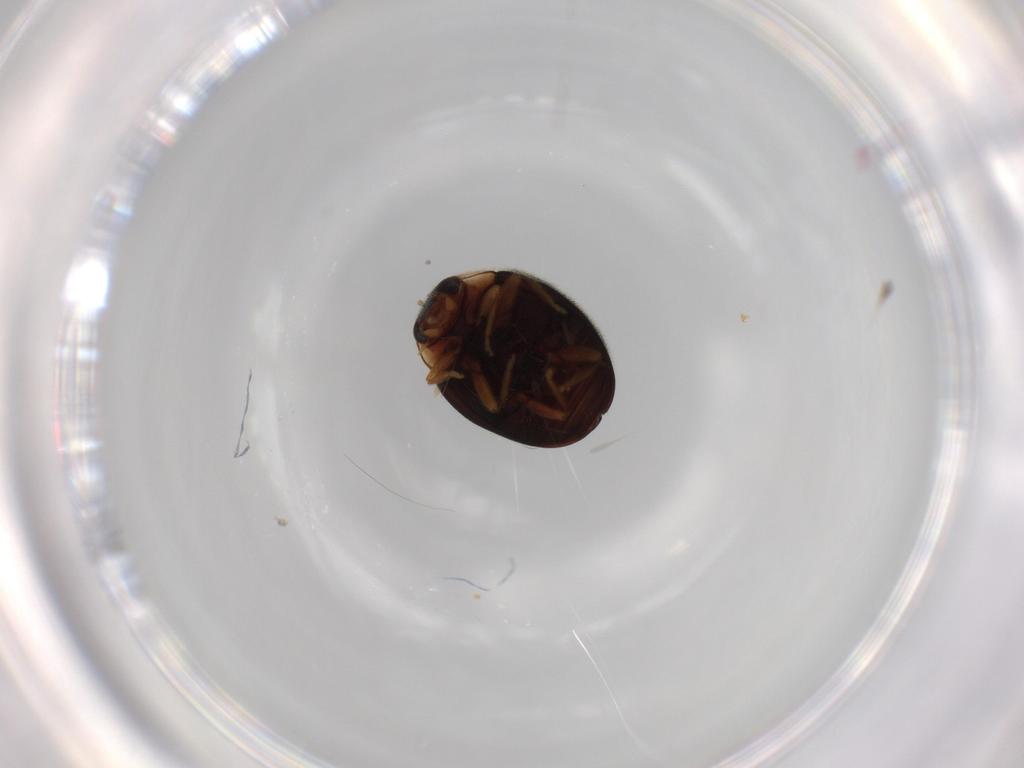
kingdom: Animalia
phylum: Arthropoda
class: Insecta
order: Coleoptera
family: Coccinellidae
